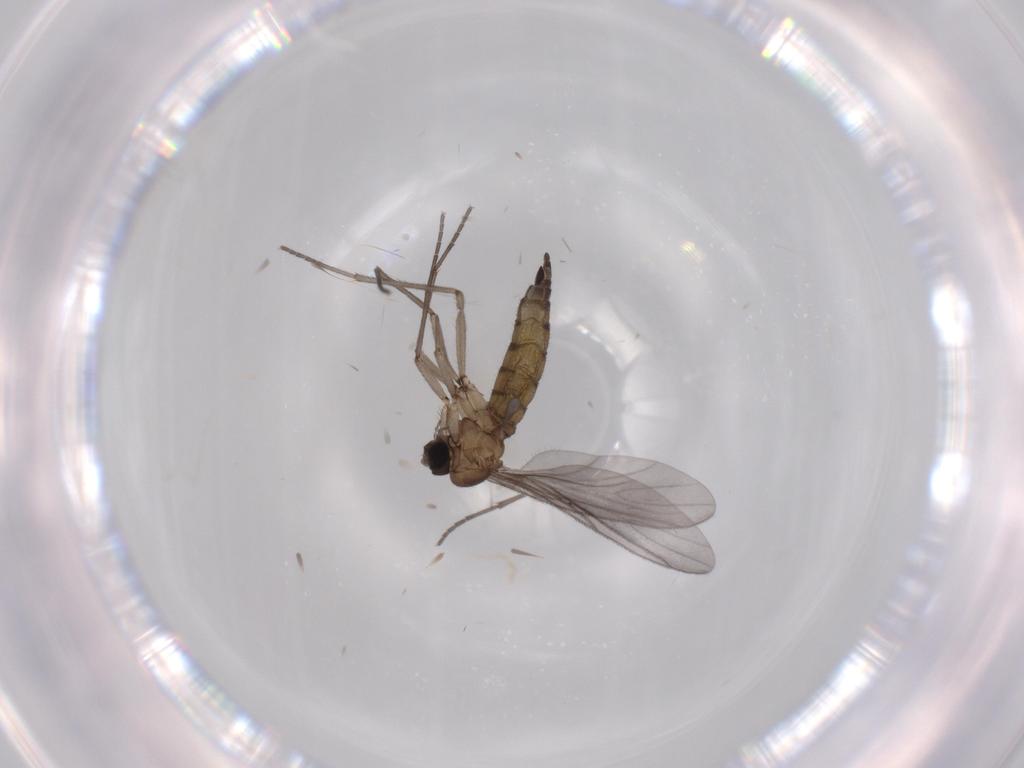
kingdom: Animalia
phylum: Arthropoda
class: Insecta
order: Diptera
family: Sciaridae
